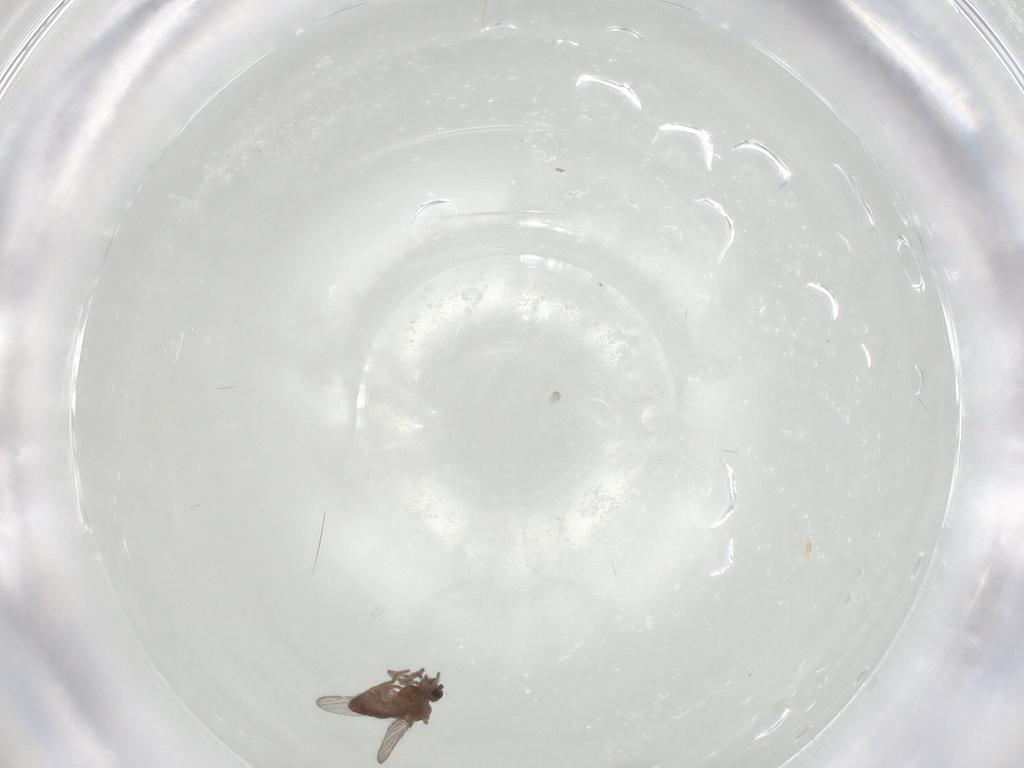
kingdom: Animalia
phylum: Arthropoda
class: Insecta
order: Diptera
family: Ceratopogonidae
